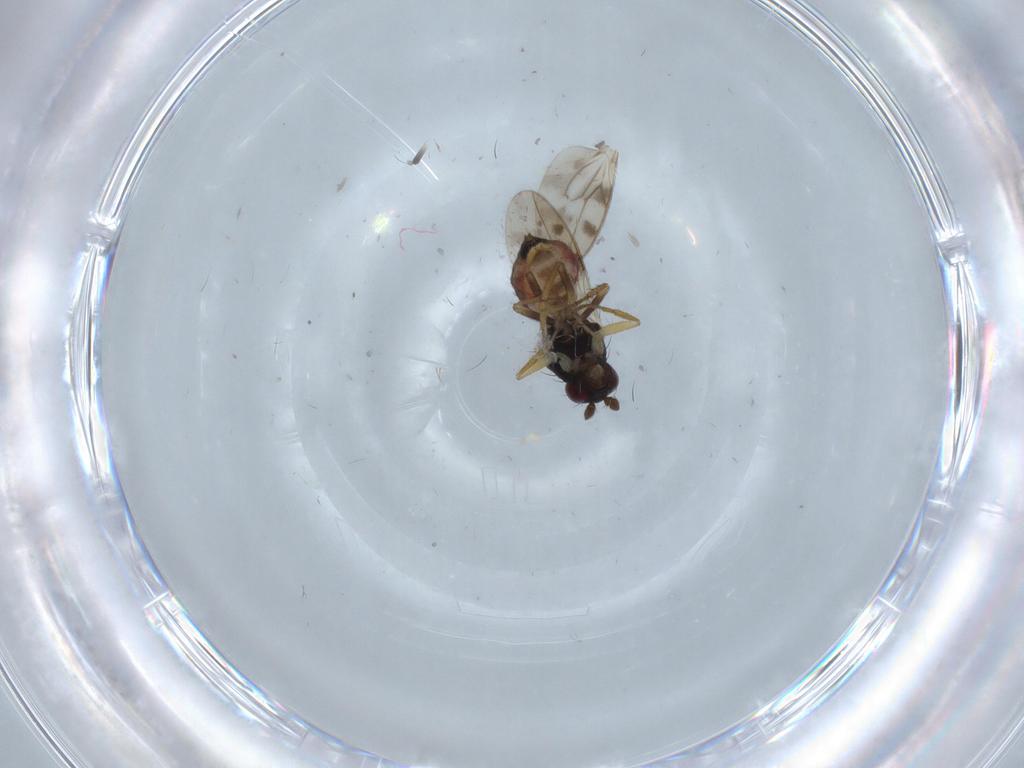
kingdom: Animalia
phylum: Arthropoda
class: Insecta
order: Diptera
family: Sphaeroceridae
